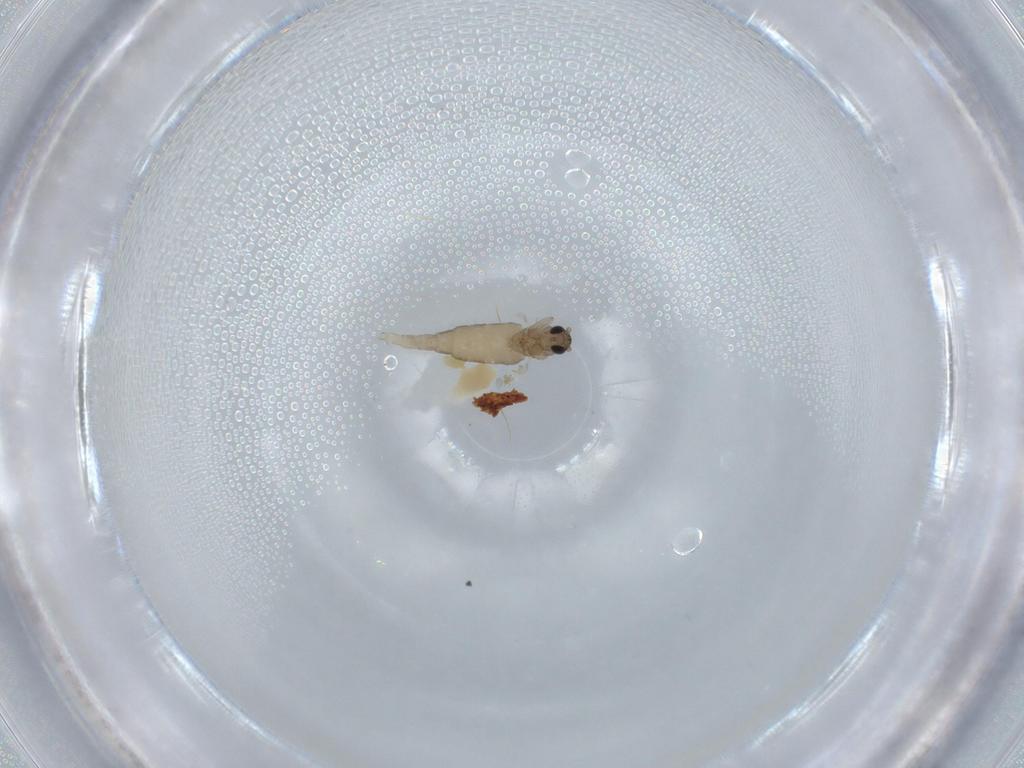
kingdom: Animalia
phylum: Arthropoda
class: Insecta
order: Diptera
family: Cecidomyiidae
